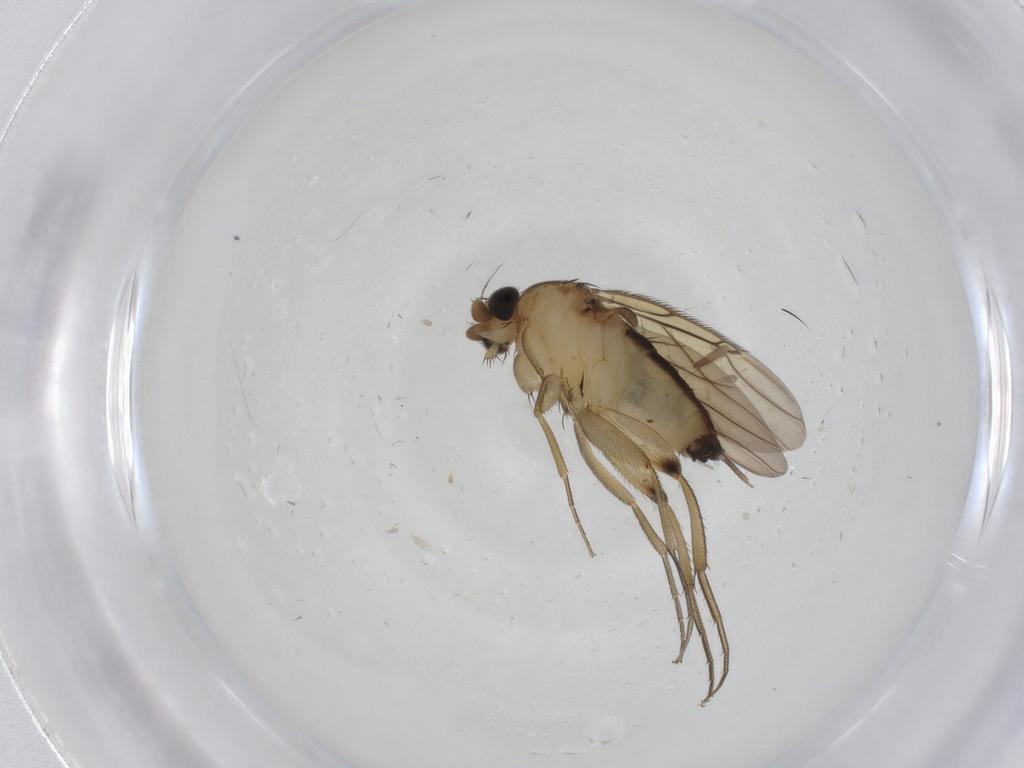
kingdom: Animalia
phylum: Arthropoda
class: Insecta
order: Diptera
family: Phoridae
